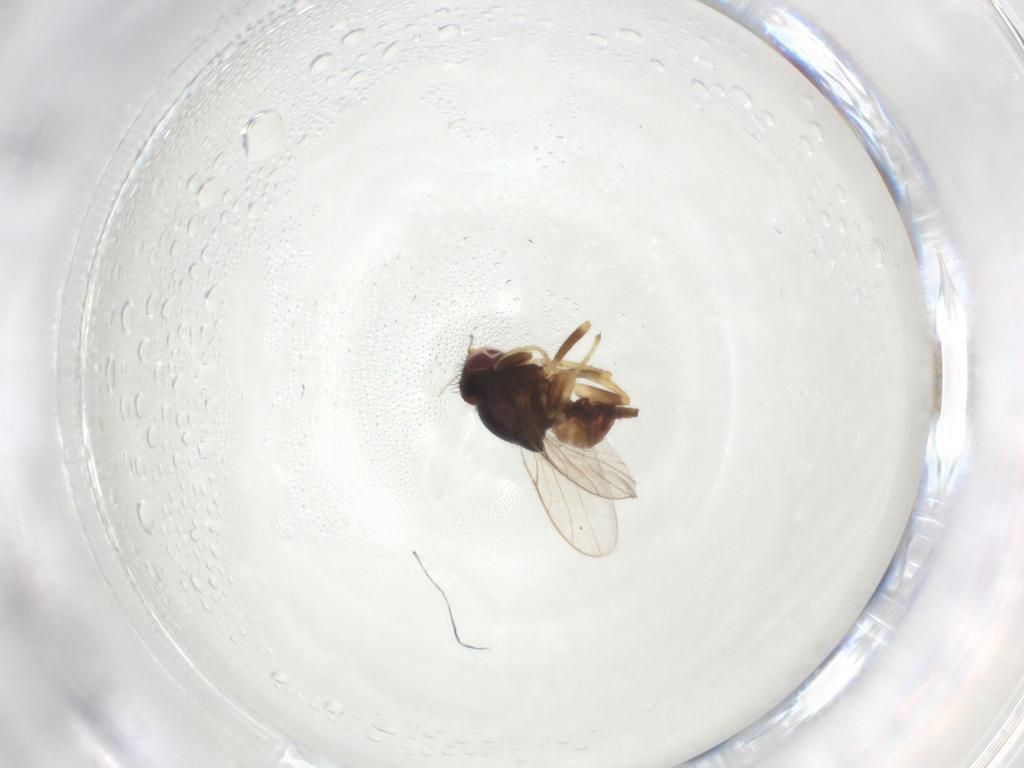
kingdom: Animalia
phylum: Arthropoda
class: Insecta
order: Diptera
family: Chloropidae
